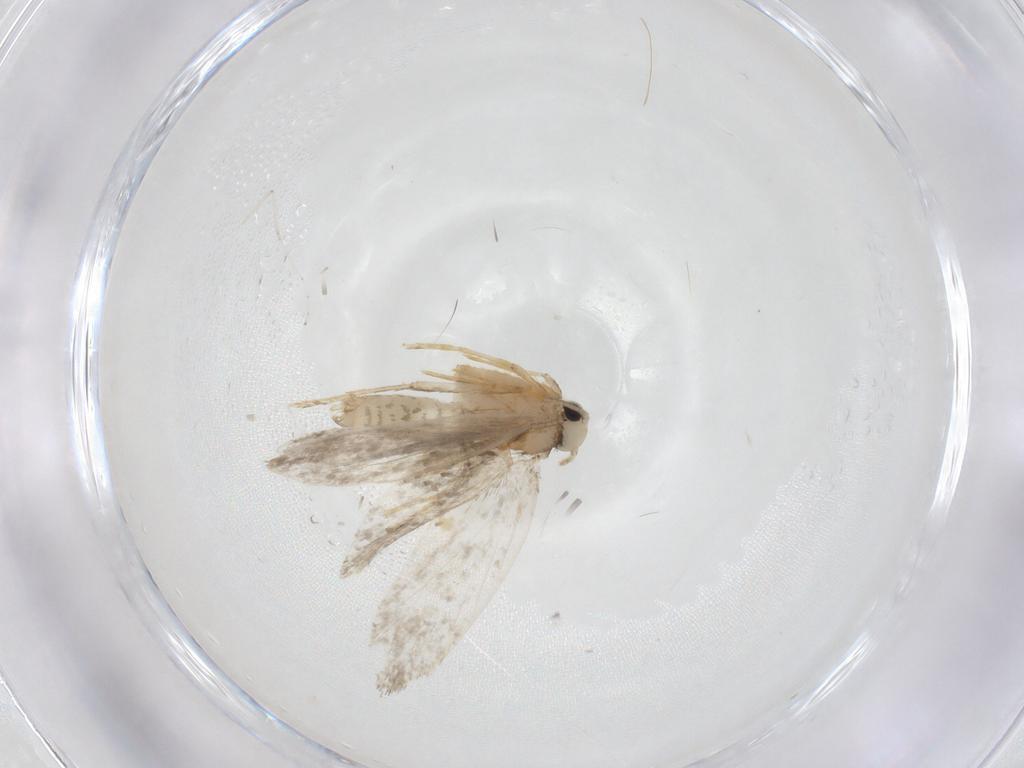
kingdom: Animalia
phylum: Arthropoda
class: Insecta
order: Lepidoptera
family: Psychidae
